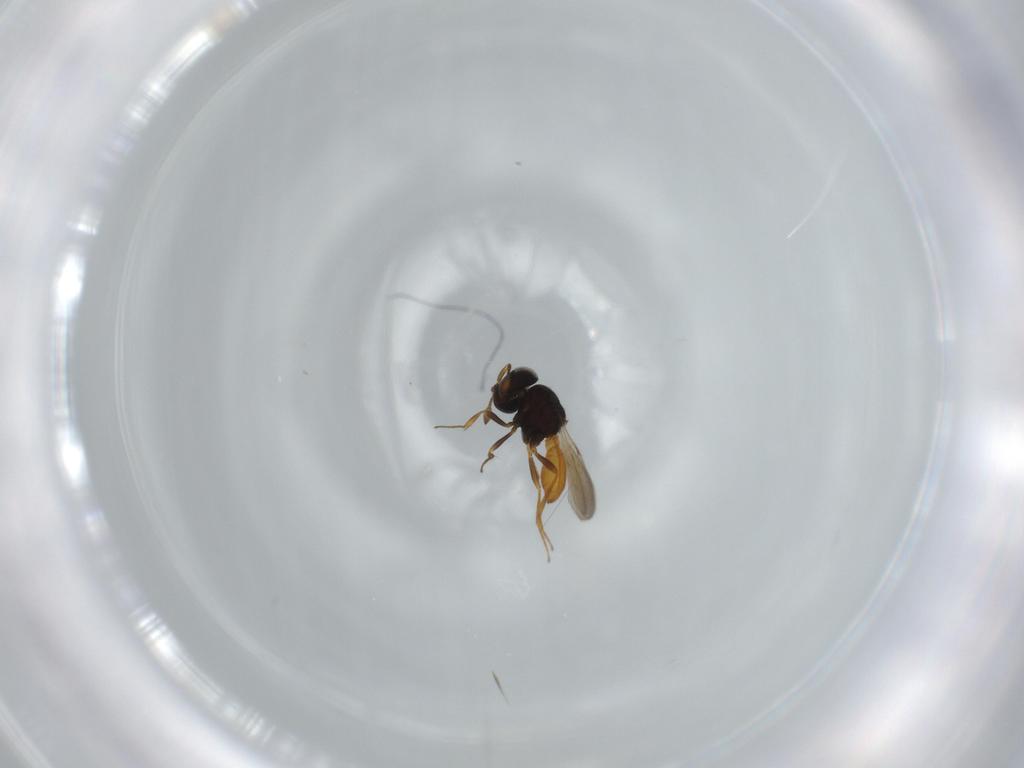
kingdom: Animalia
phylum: Arthropoda
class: Insecta
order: Hymenoptera
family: Scelionidae
